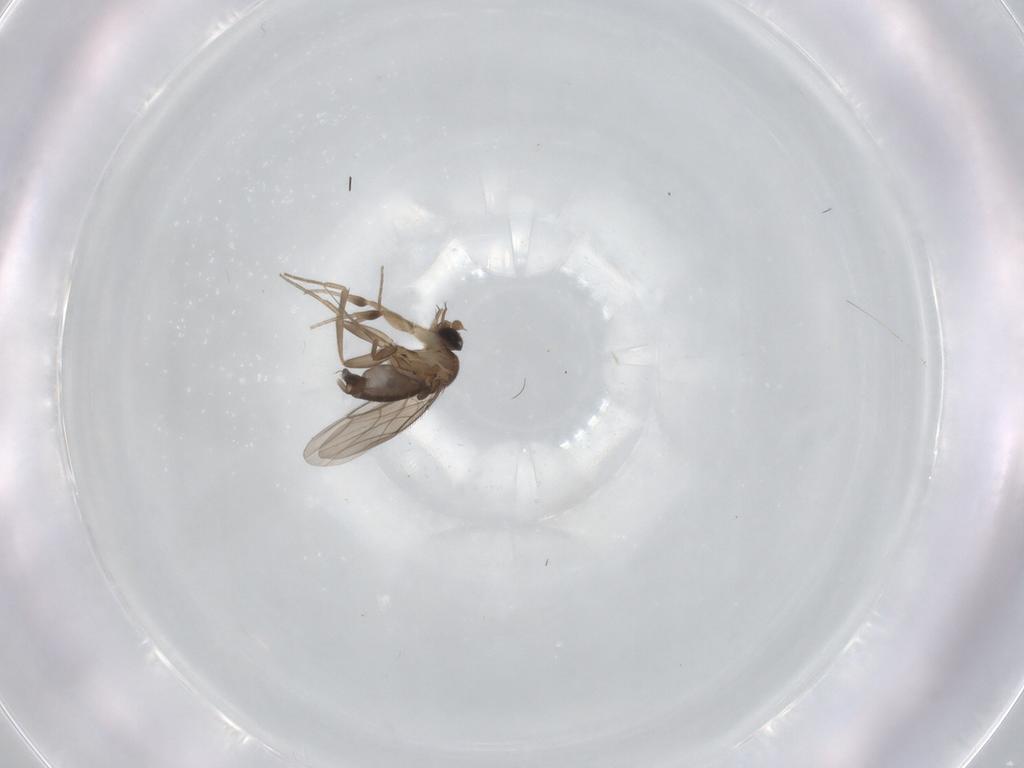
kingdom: Animalia
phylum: Arthropoda
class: Insecta
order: Diptera
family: Phoridae
